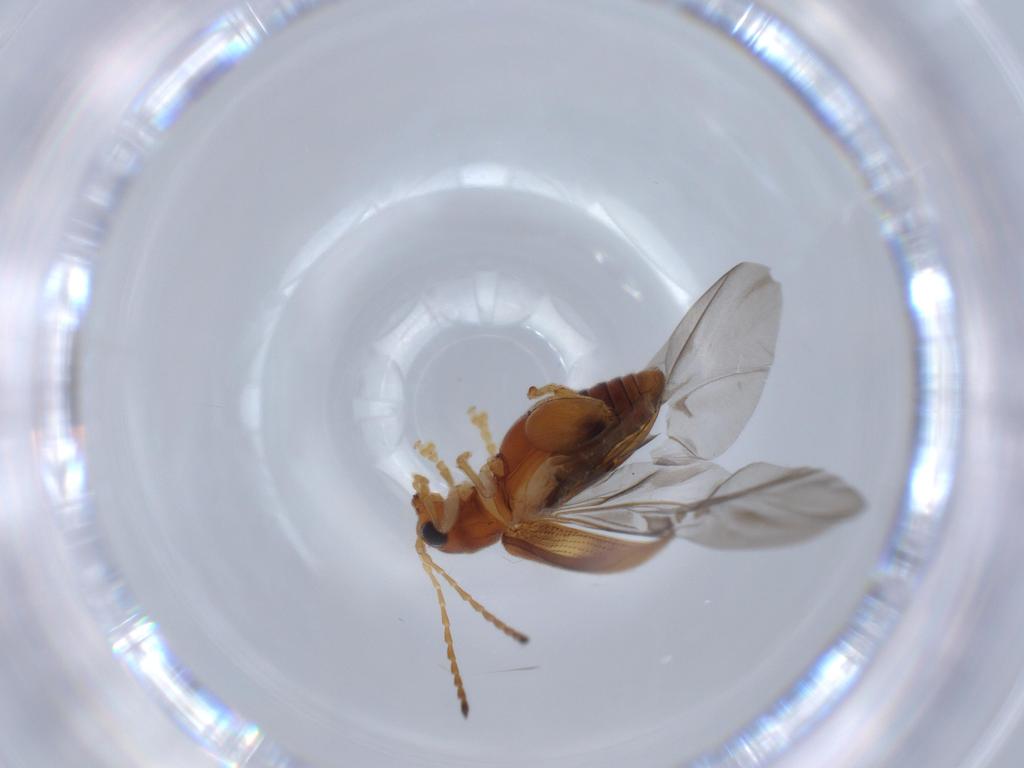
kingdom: Animalia
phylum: Arthropoda
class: Insecta
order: Coleoptera
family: Chrysomelidae
